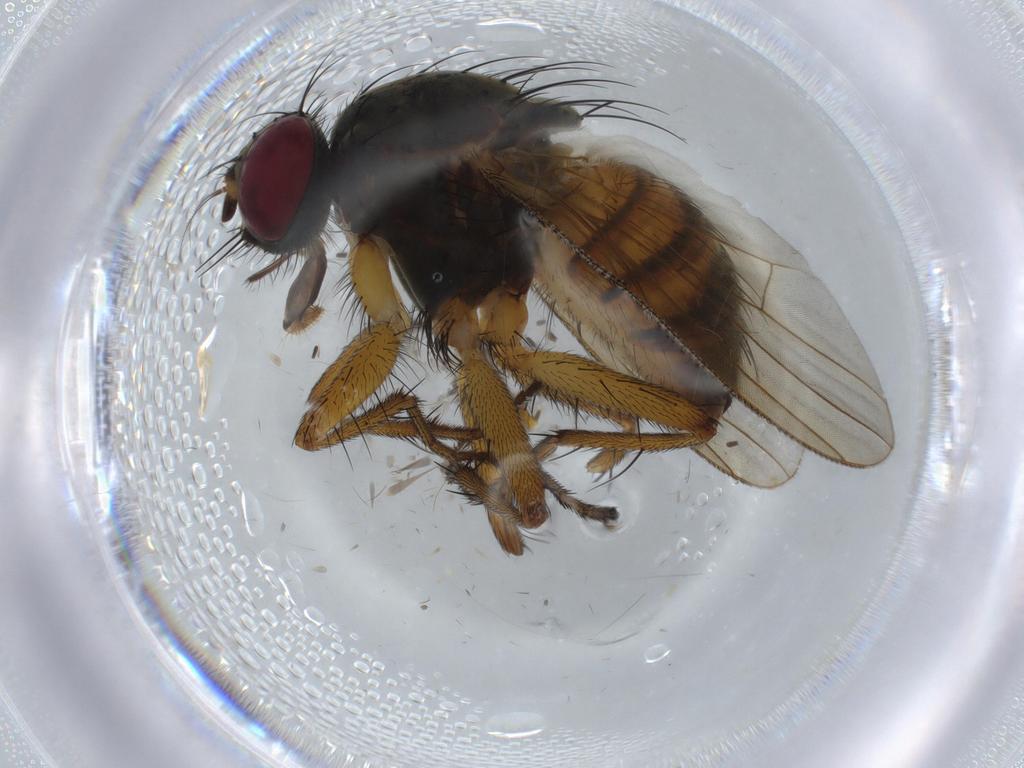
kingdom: Animalia
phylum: Arthropoda
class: Insecta
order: Diptera
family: Muscidae
